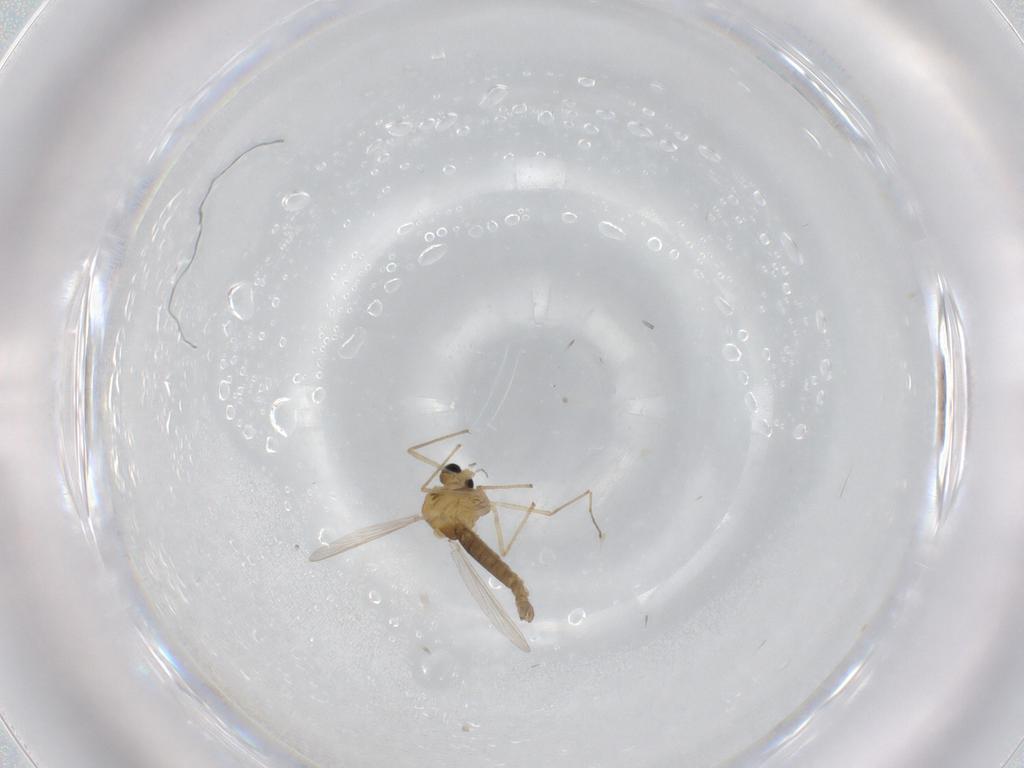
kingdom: Animalia
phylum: Arthropoda
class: Insecta
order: Diptera
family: Chironomidae
